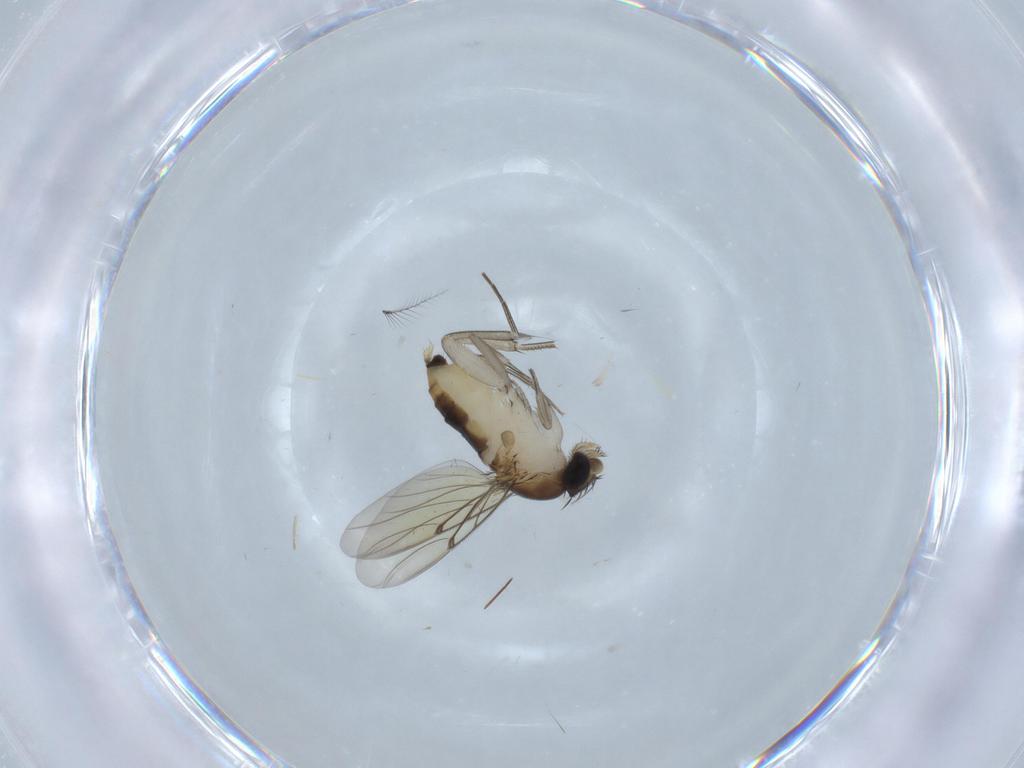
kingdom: Animalia
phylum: Arthropoda
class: Insecta
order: Diptera
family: Phoridae
